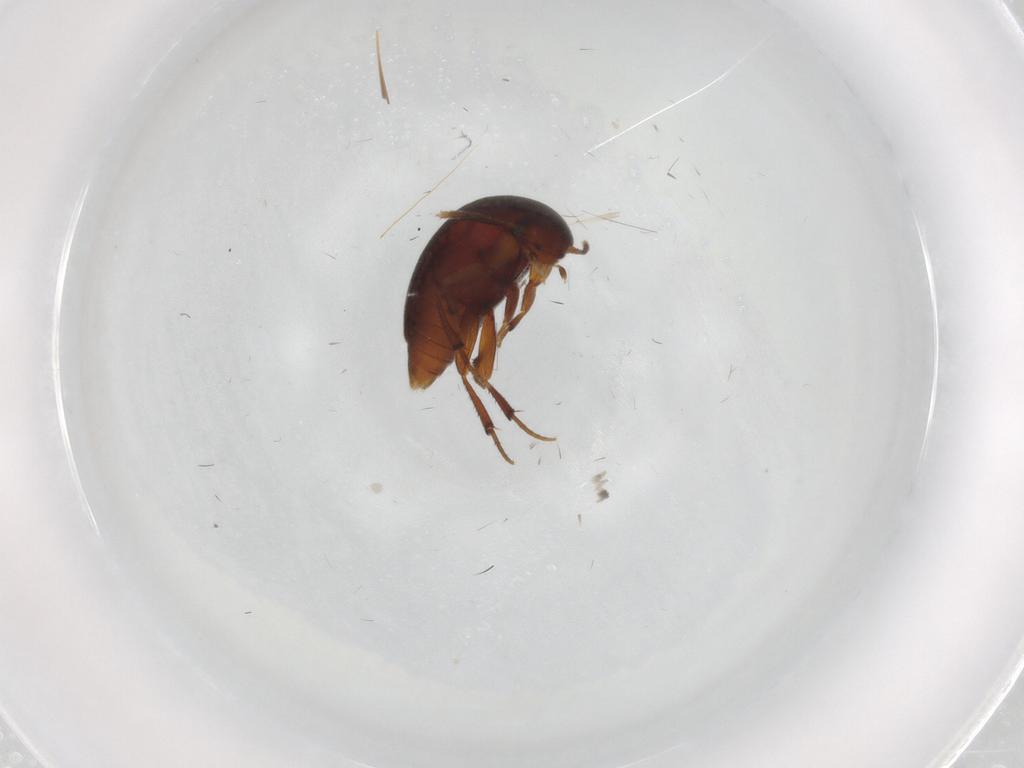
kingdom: Animalia
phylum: Arthropoda
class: Insecta
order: Coleoptera
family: Leiodidae
